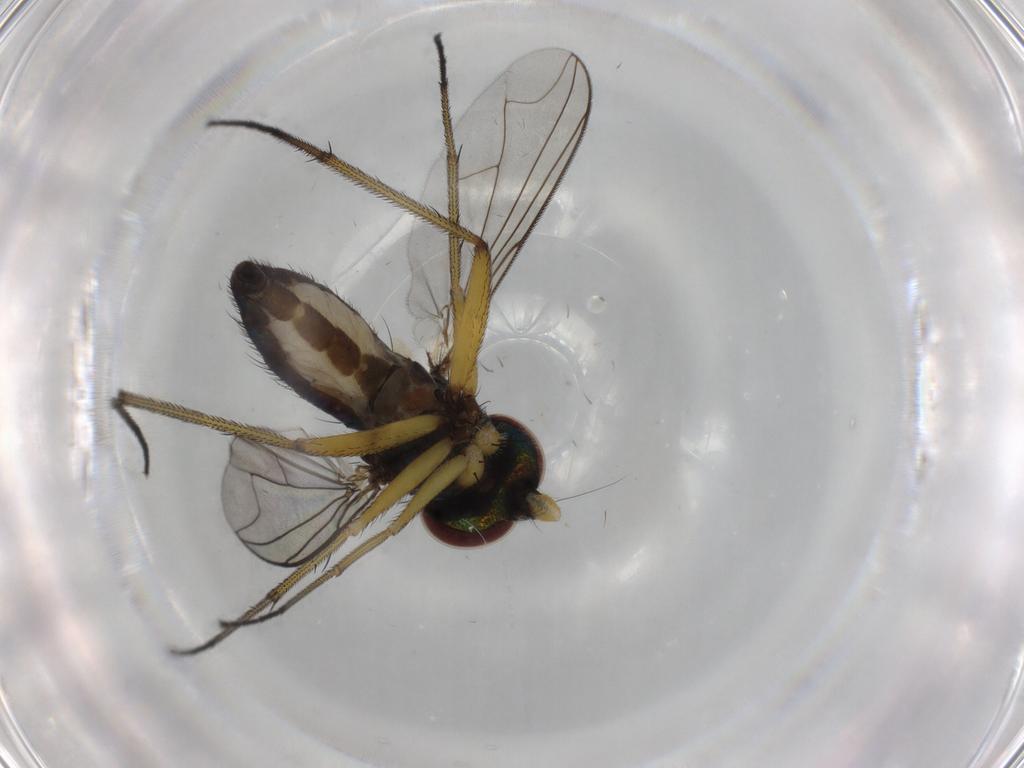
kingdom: Animalia
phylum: Arthropoda
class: Insecta
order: Diptera
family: Dolichopodidae
